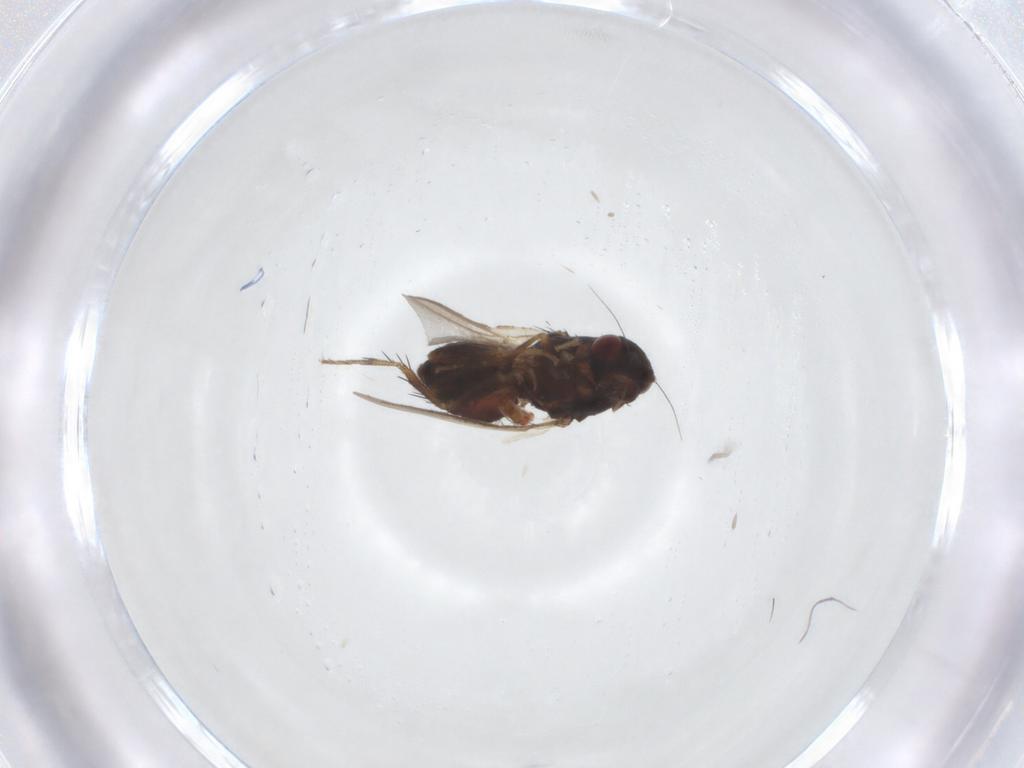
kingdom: Animalia
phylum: Arthropoda
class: Insecta
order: Diptera
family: Sphaeroceridae
